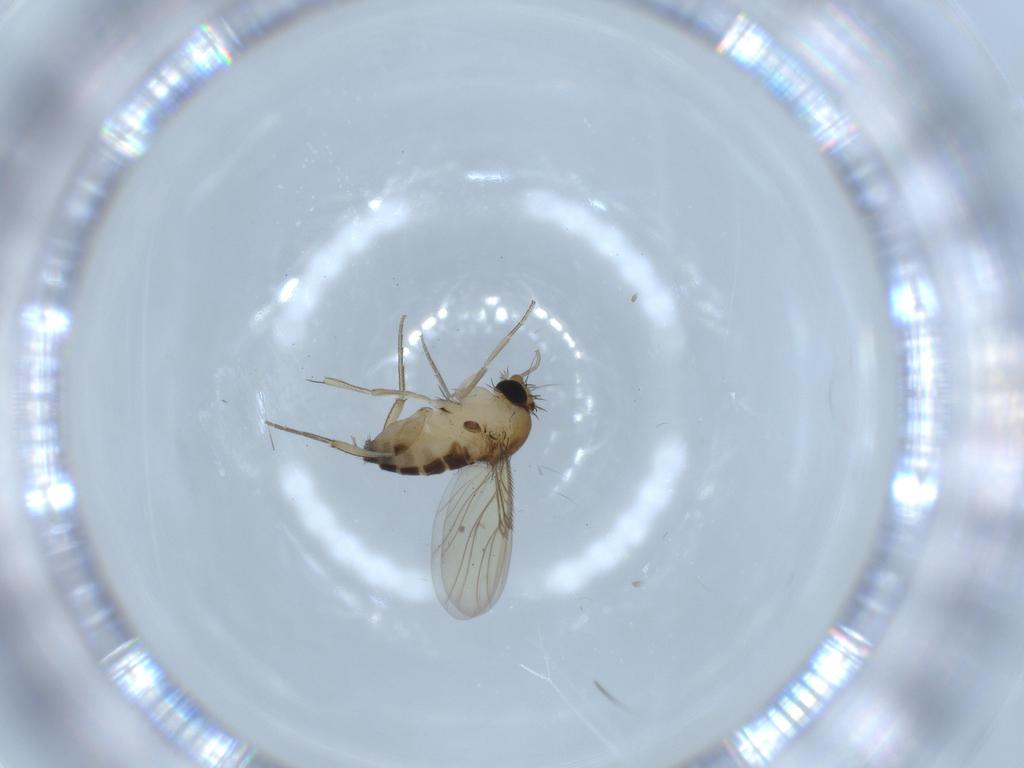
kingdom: Animalia
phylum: Arthropoda
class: Insecta
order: Diptera
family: Phoridae
